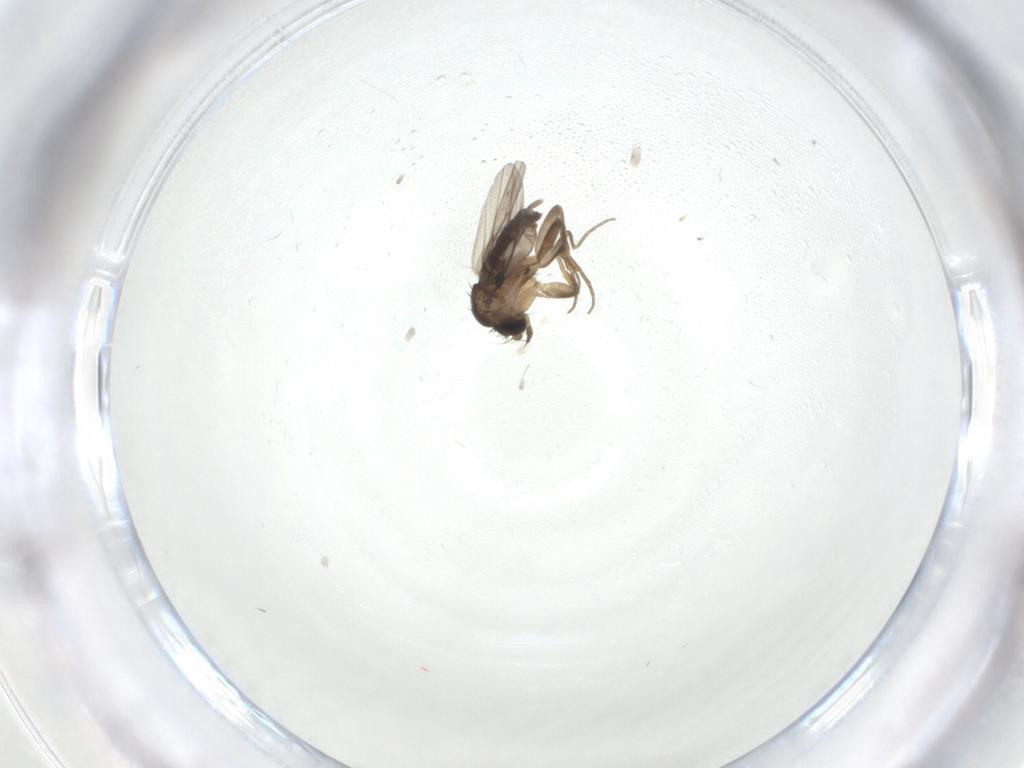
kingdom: Animalia
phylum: Arthropoda
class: Insecta
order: Diptera
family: Phoridae
